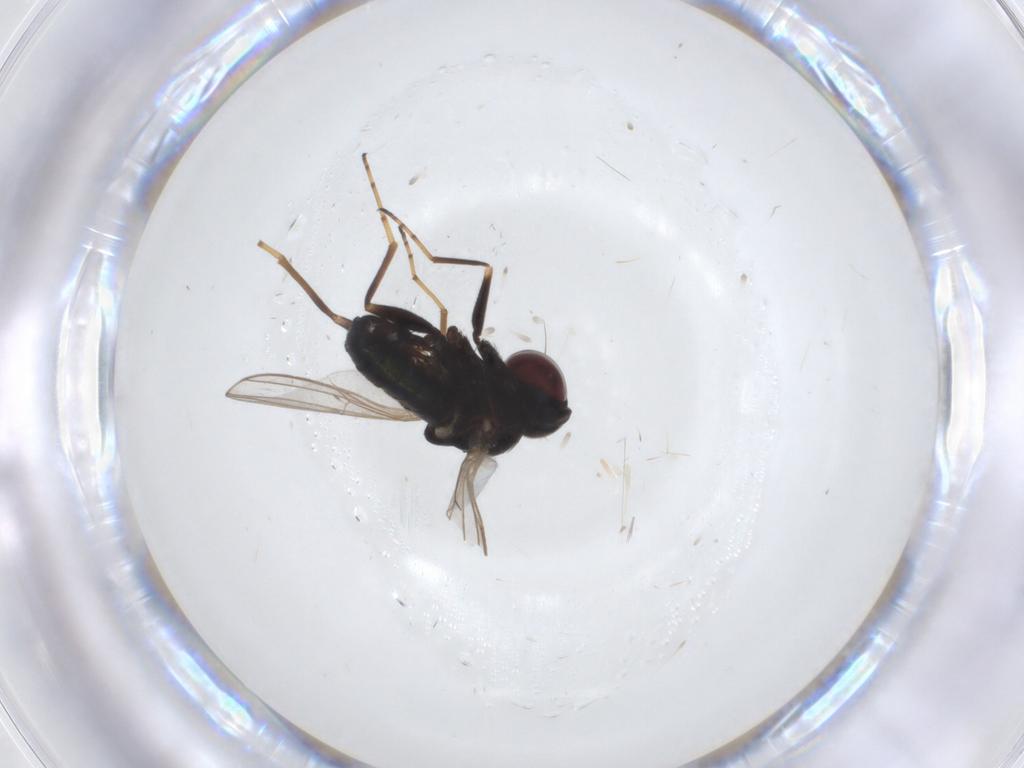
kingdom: Animalia
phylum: Arthropoda
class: Insecta
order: Diptera
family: Dolichopodidae
